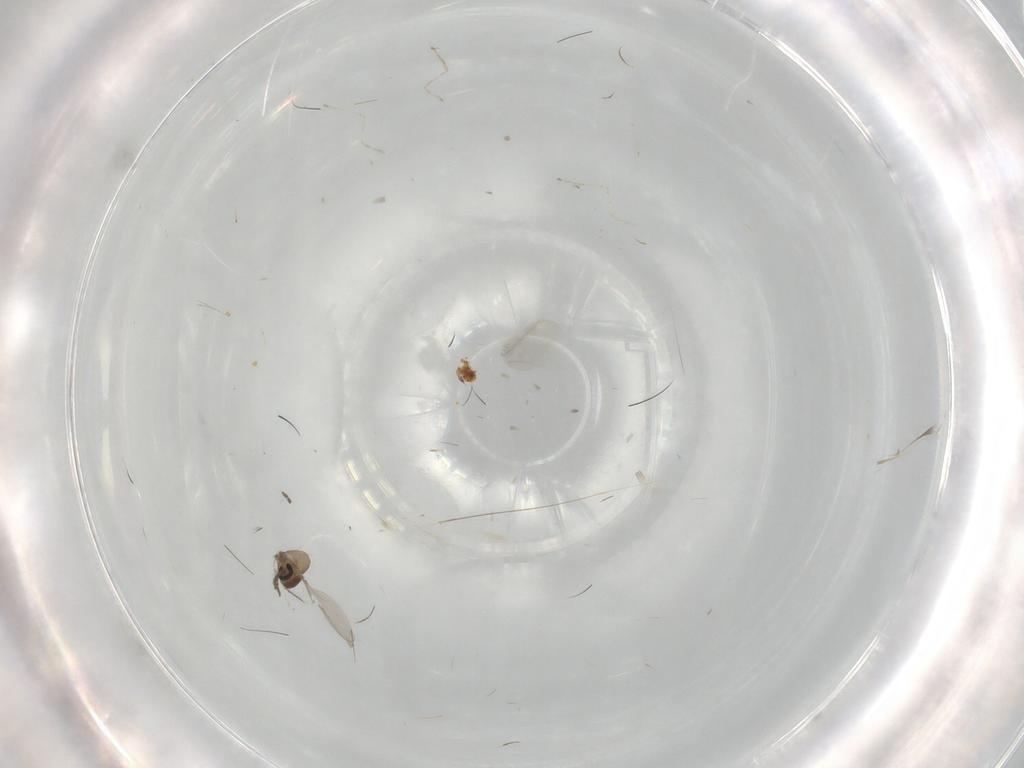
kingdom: Animalia
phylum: Arthropoda
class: Insecta
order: Diptera
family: Cecidomyiidae
